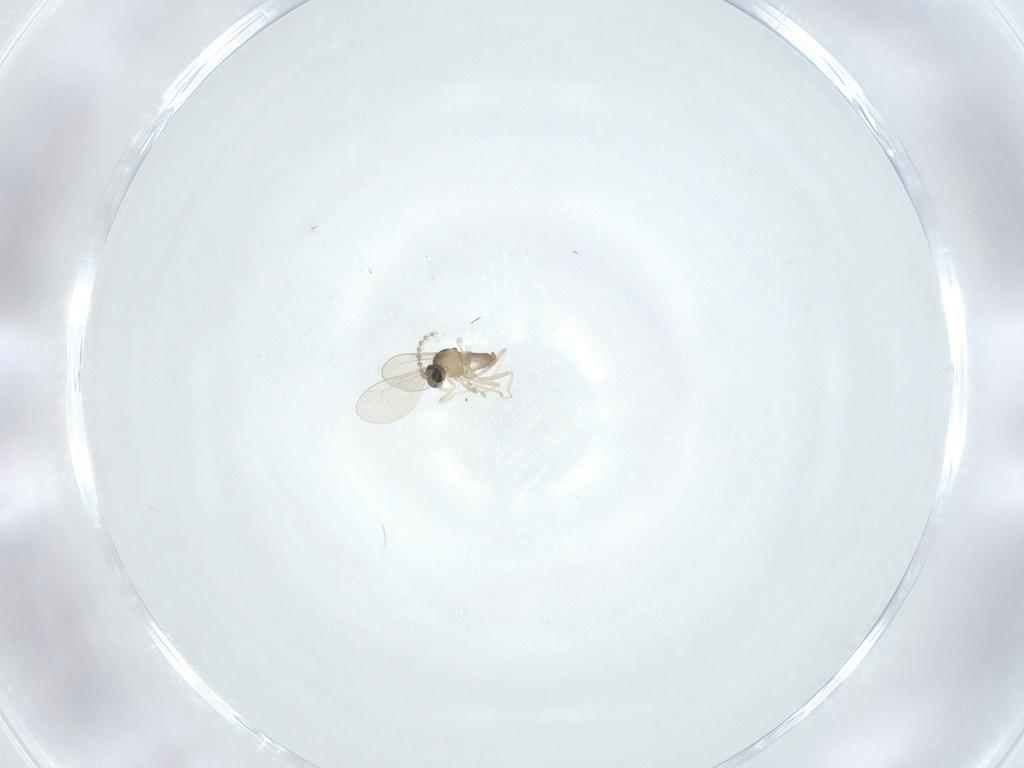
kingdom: Animalia
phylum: Arthropoda
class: Insecta
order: Diptera
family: Cecidomyiidae
